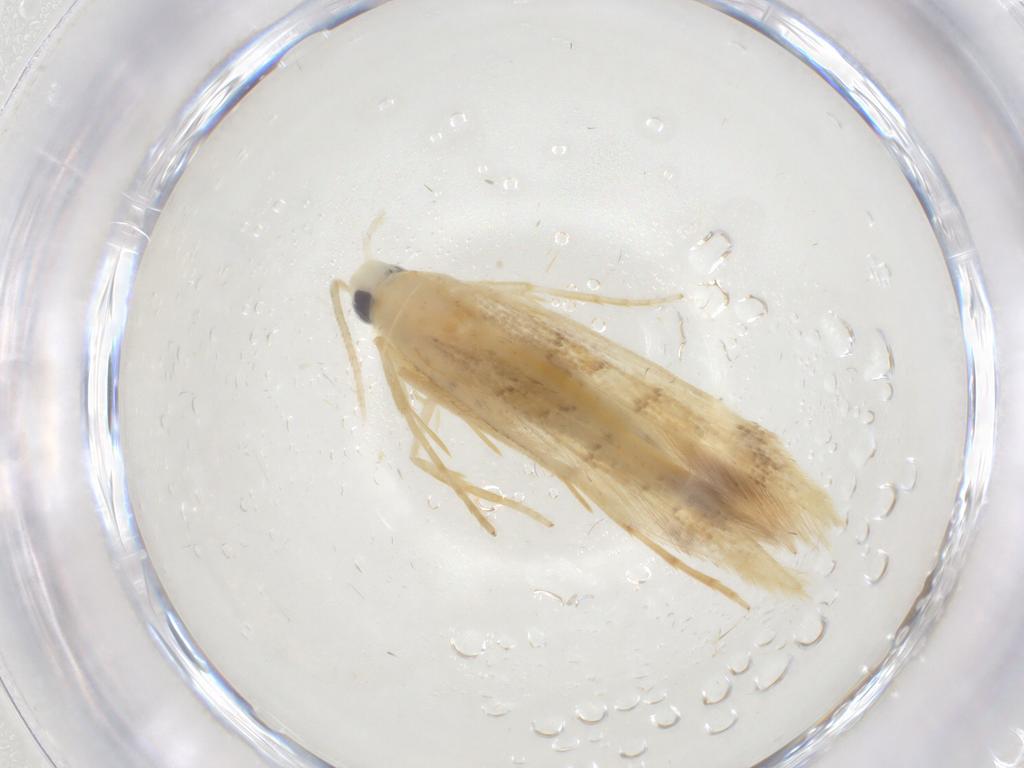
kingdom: Animalia
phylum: Arthropoda
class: Insecta
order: Lepidoptera
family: Oecophoridae
